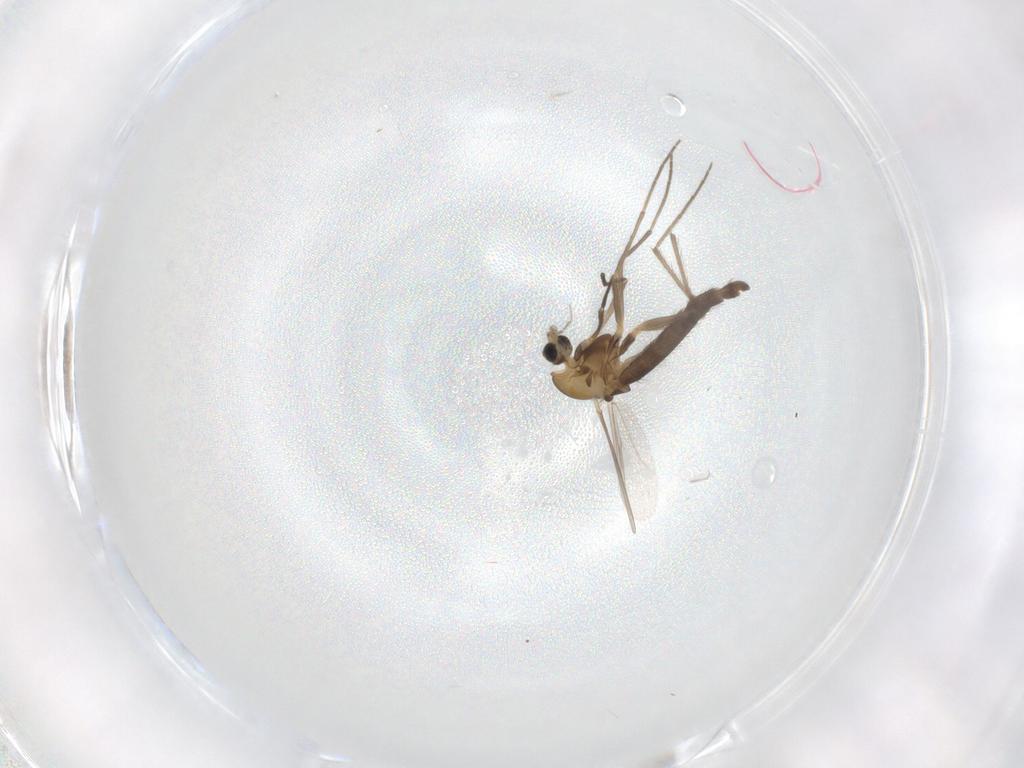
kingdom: Animalia
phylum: Arthropoda
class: Insecta
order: Diptera
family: Chironomidae
